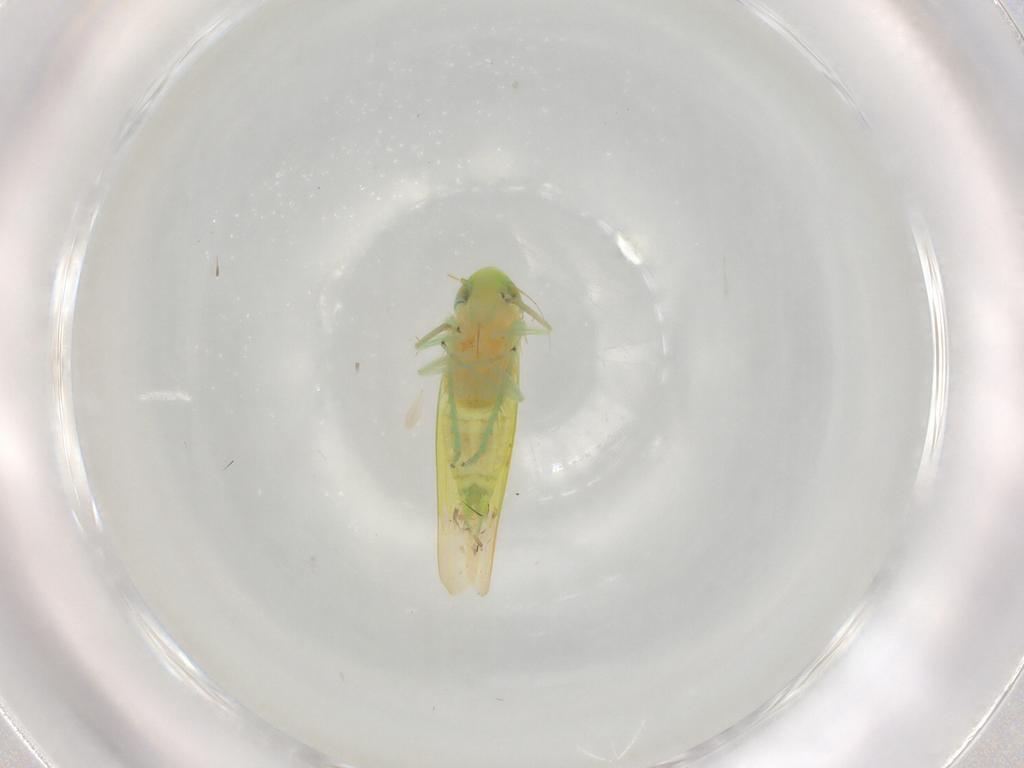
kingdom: Animalia
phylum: Arthropoda
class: Insecta
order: Hemiptera
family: Cicadellidae
